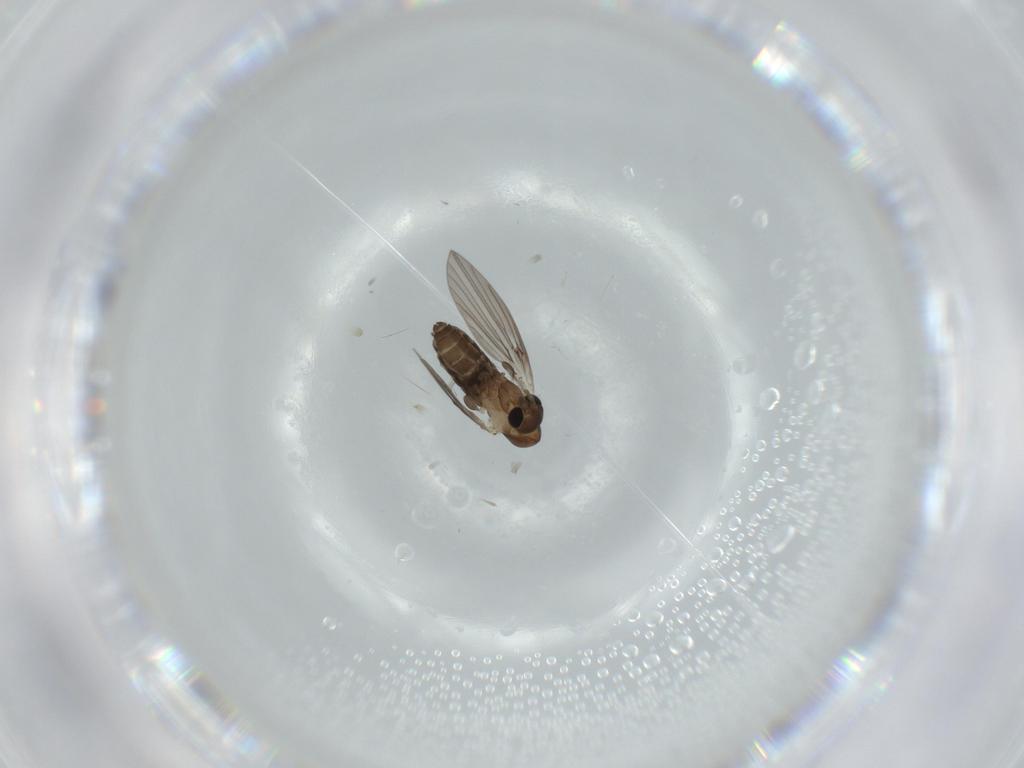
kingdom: Animalia
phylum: Arthropoda
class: Insecta
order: Diptera
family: Psychodidae
